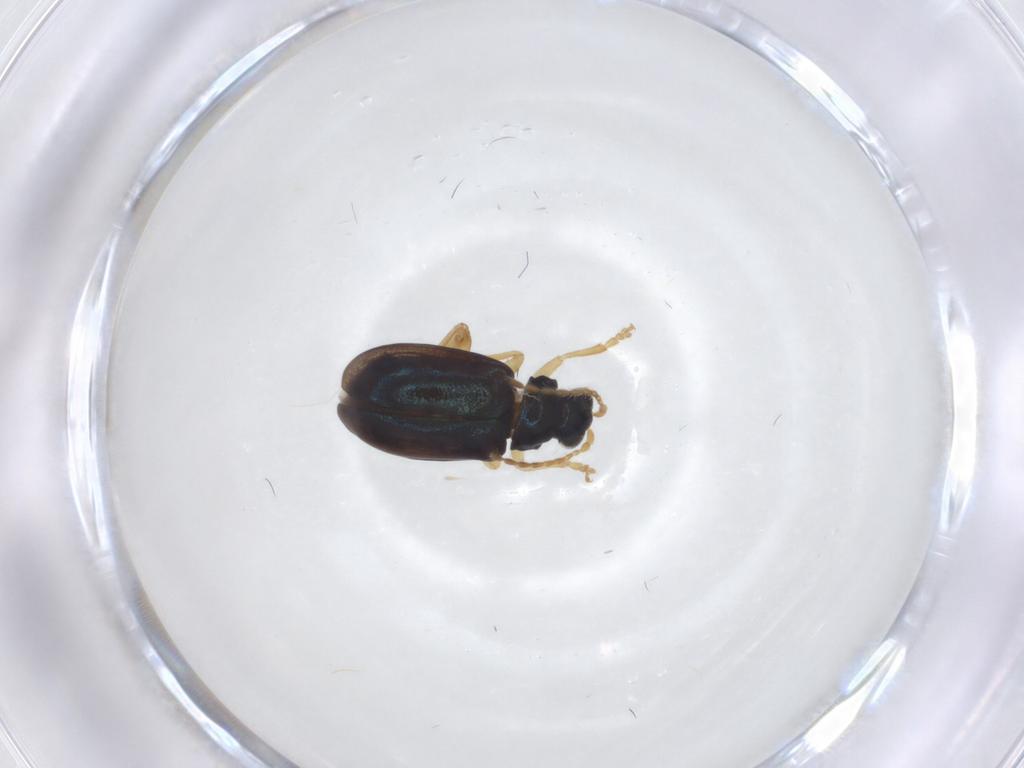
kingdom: Animalia
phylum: Arthropoda
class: Insecta
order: Coleoptera
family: Chrysomelidae
